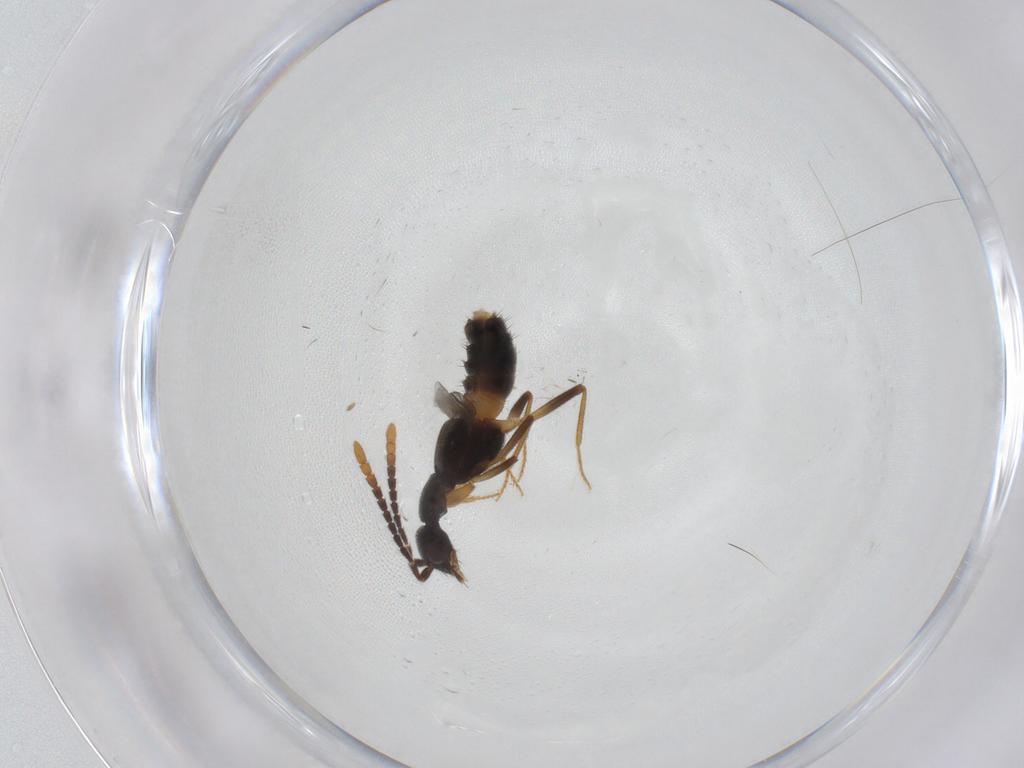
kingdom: Animalia
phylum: Arthropoda
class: Insecta
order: Coleoptera
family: Staphylinidae
